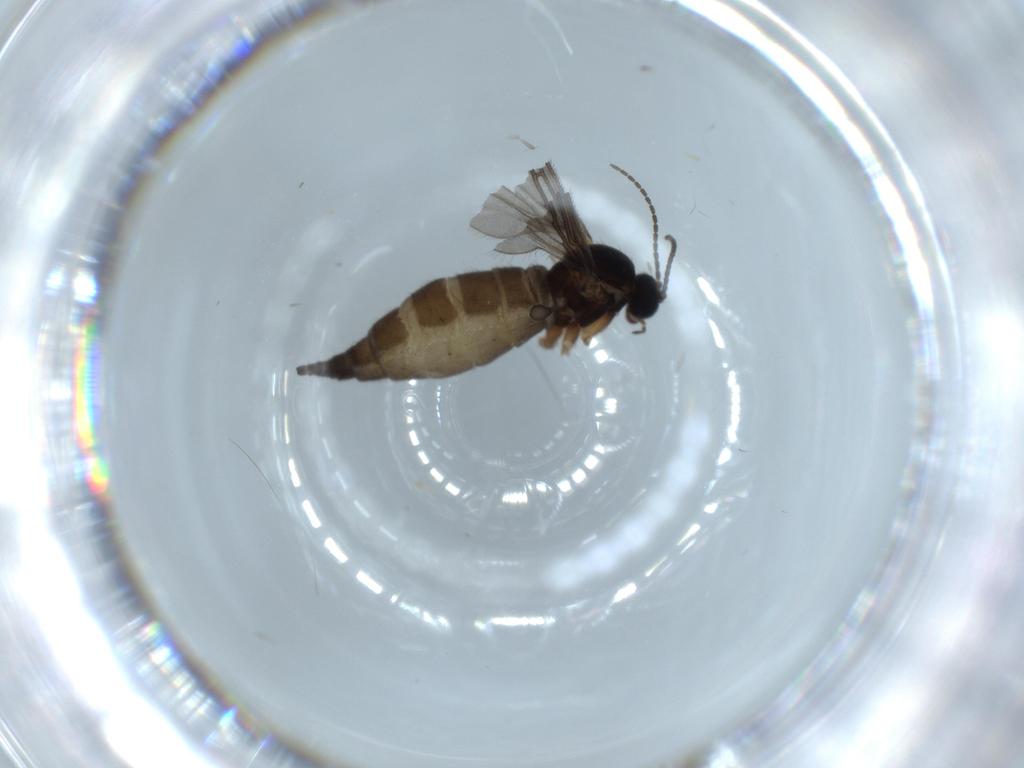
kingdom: Animalia
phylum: Arthropoda
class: Insecta
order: Diptera
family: Sciaridae
